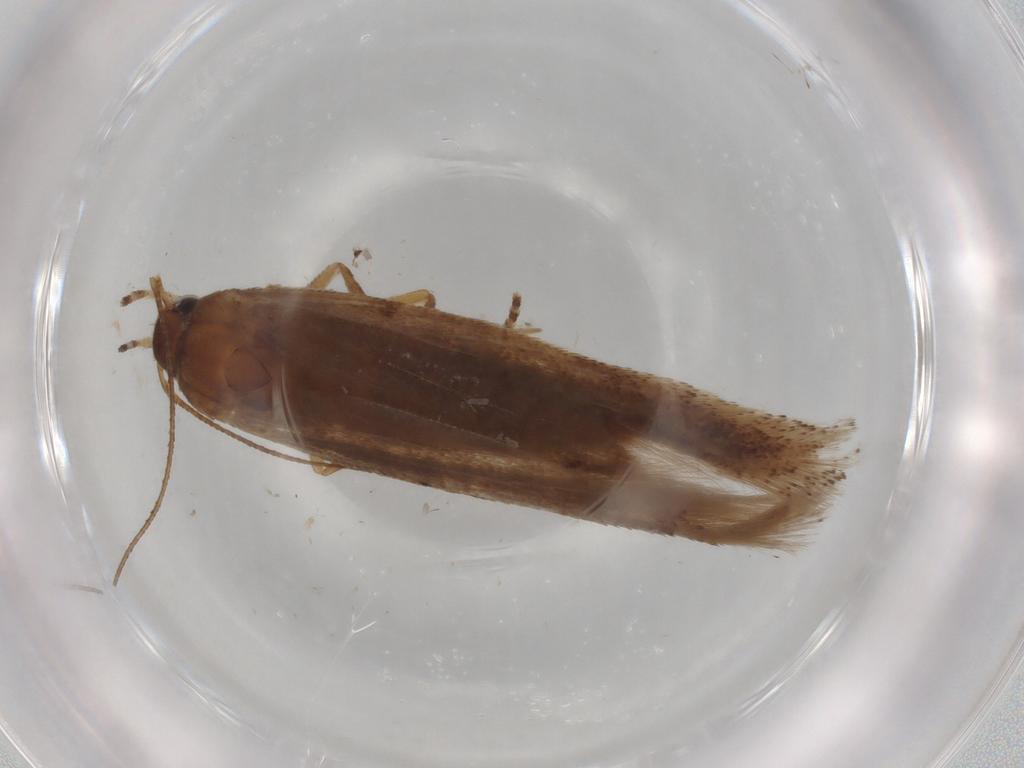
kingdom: Animalia
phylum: Arthropoda
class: Insecta
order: Lepidoptera
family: Gelechiidae
